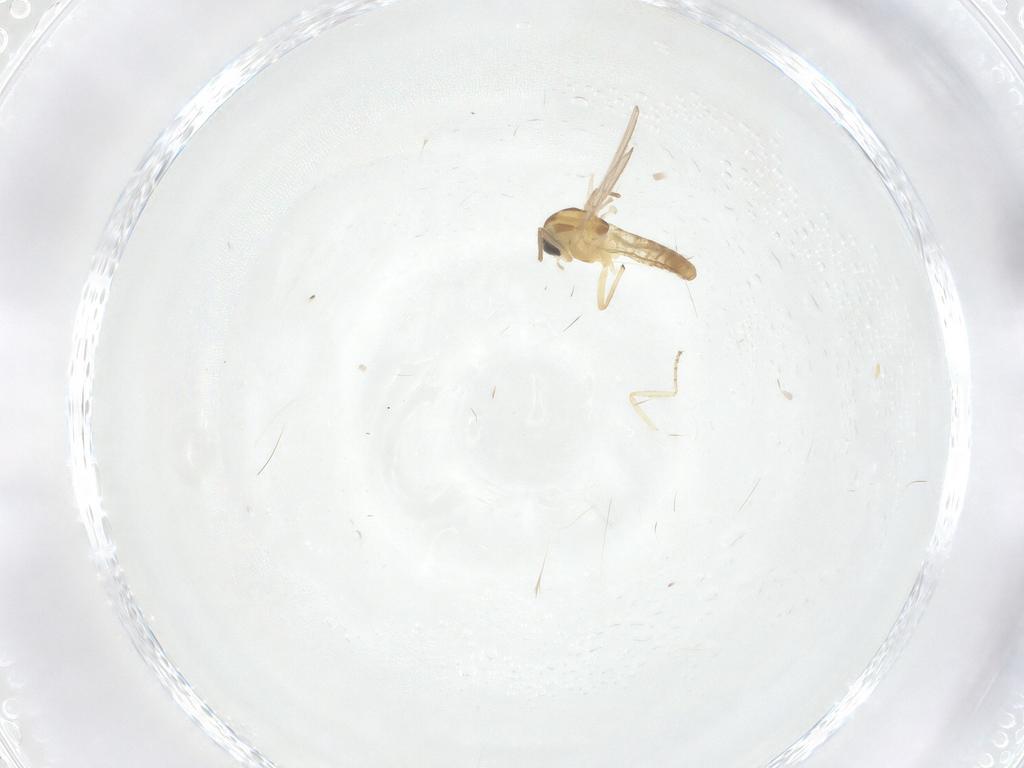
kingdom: Animalia
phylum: Arthropoda
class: Insecta
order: Diptera
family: Chironomidae
